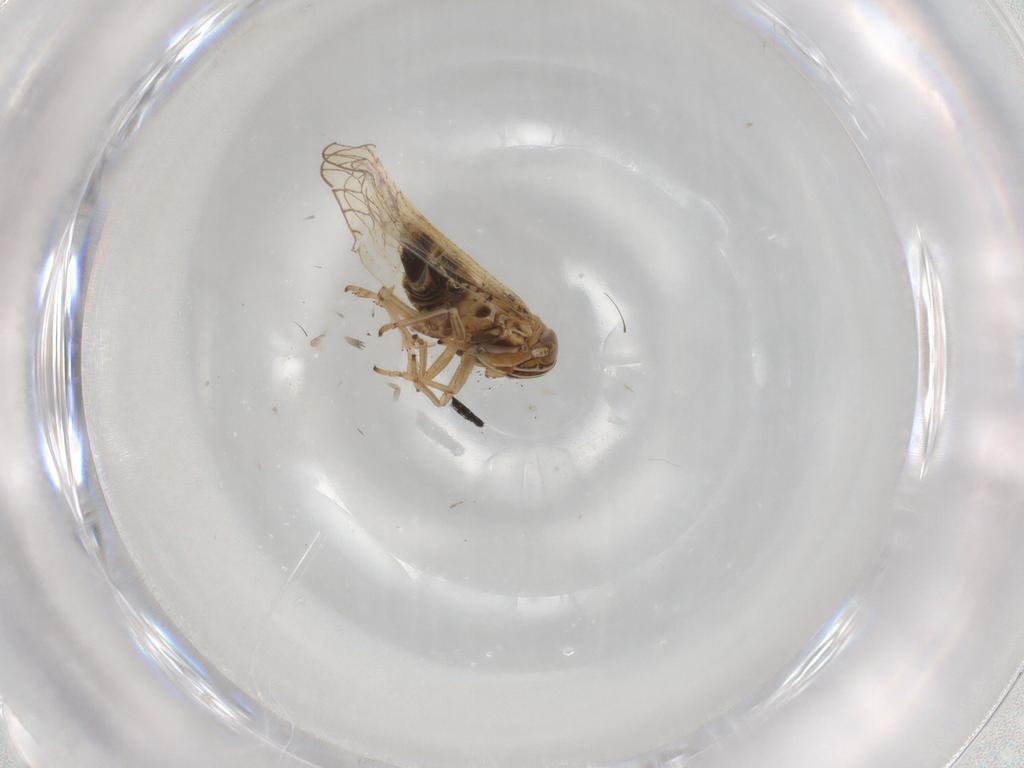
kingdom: Animalia
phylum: Arthropoda
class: Insecta
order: Hemiptera
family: Delphacidae
